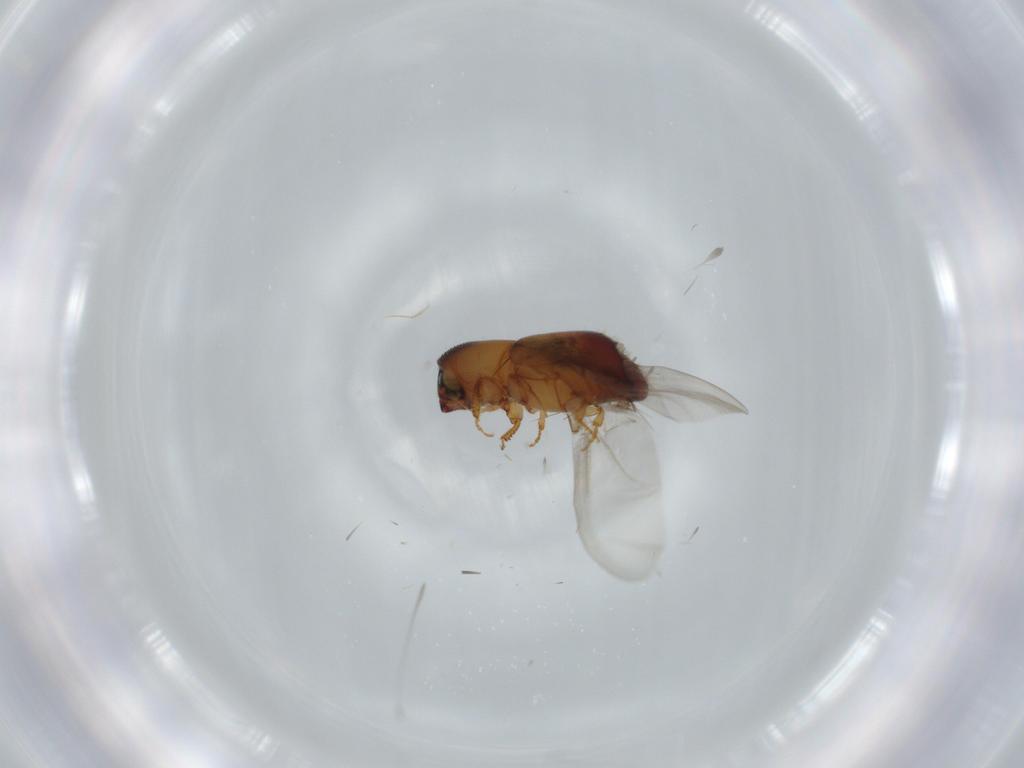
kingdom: Animalia
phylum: Arthropoda
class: Insecta
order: Coleoptera
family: Curculionidae
